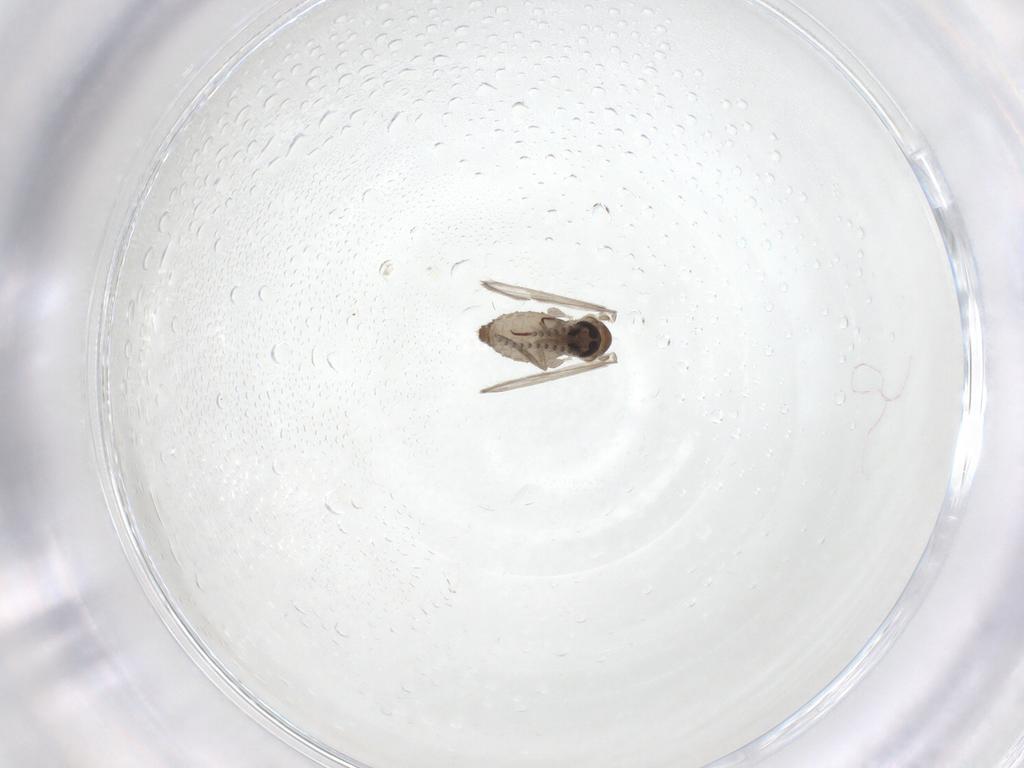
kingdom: Animalia
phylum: Arthropoda
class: Insecta
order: Diptera
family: Psychodidae
